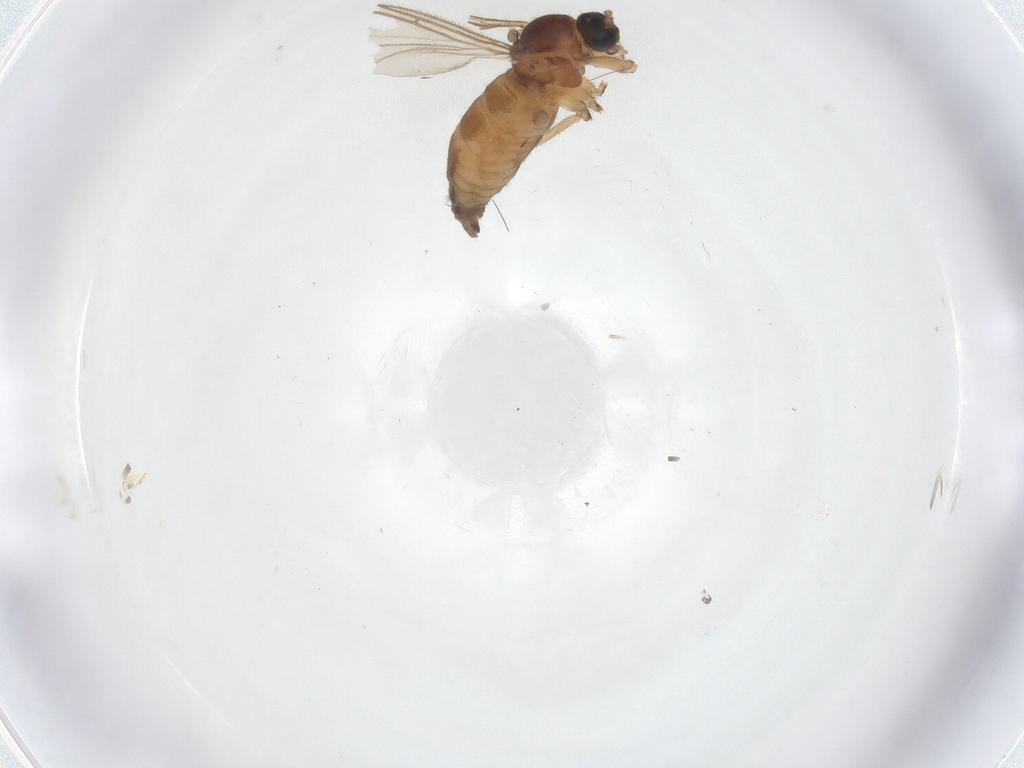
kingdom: Animalia
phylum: Arthropoda
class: Insecta
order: Diptera
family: Sciaridae
